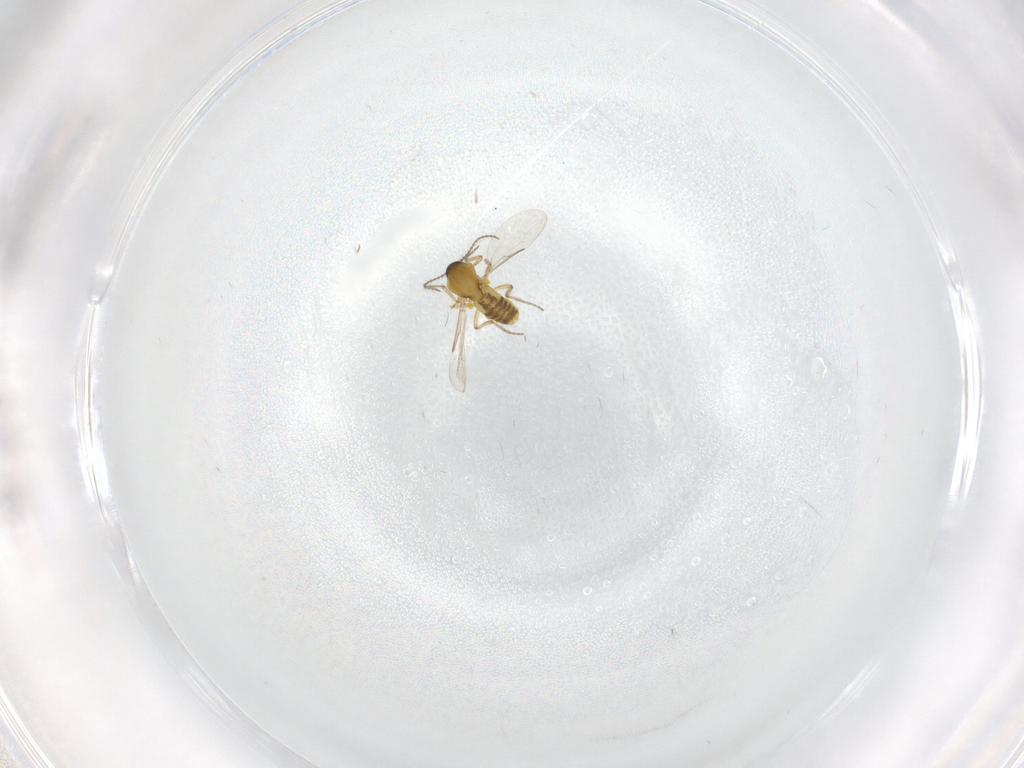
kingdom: Animalia
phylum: Arthropoda
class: Insecta
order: Diptera
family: Ceratopogonidae
